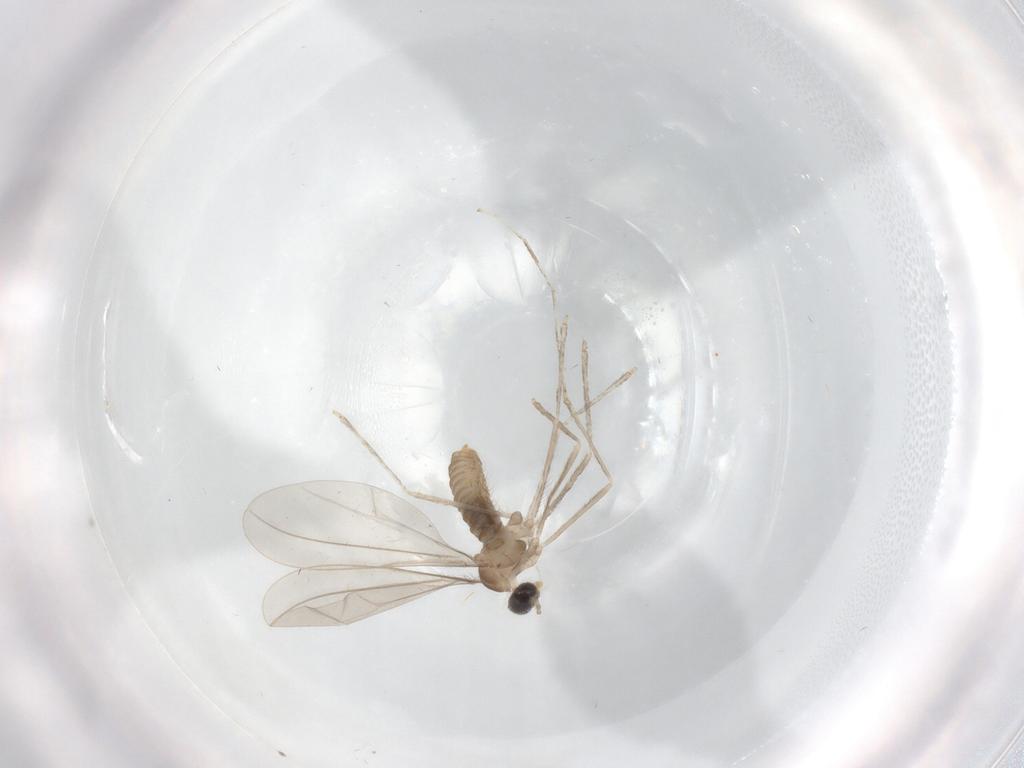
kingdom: Animalia
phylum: Arthropoda
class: Insecta
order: Diptera
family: Cecidomyiidae
